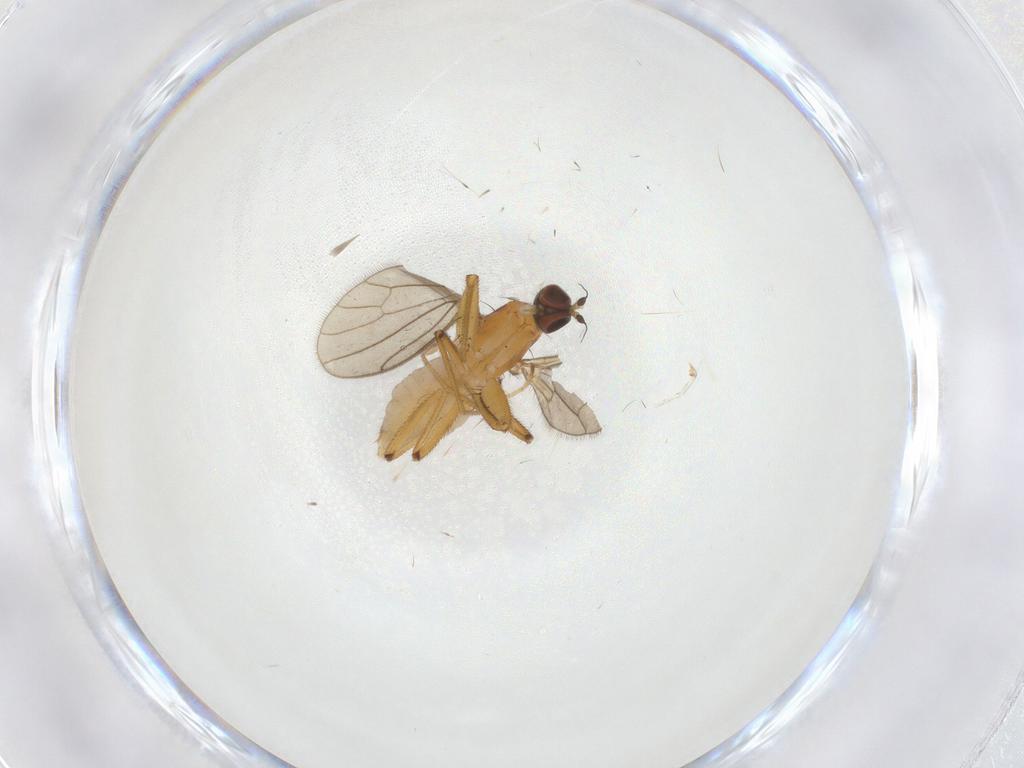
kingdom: Animalia
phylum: Arthropoda
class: Insecta
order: Diptera
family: Empididae
